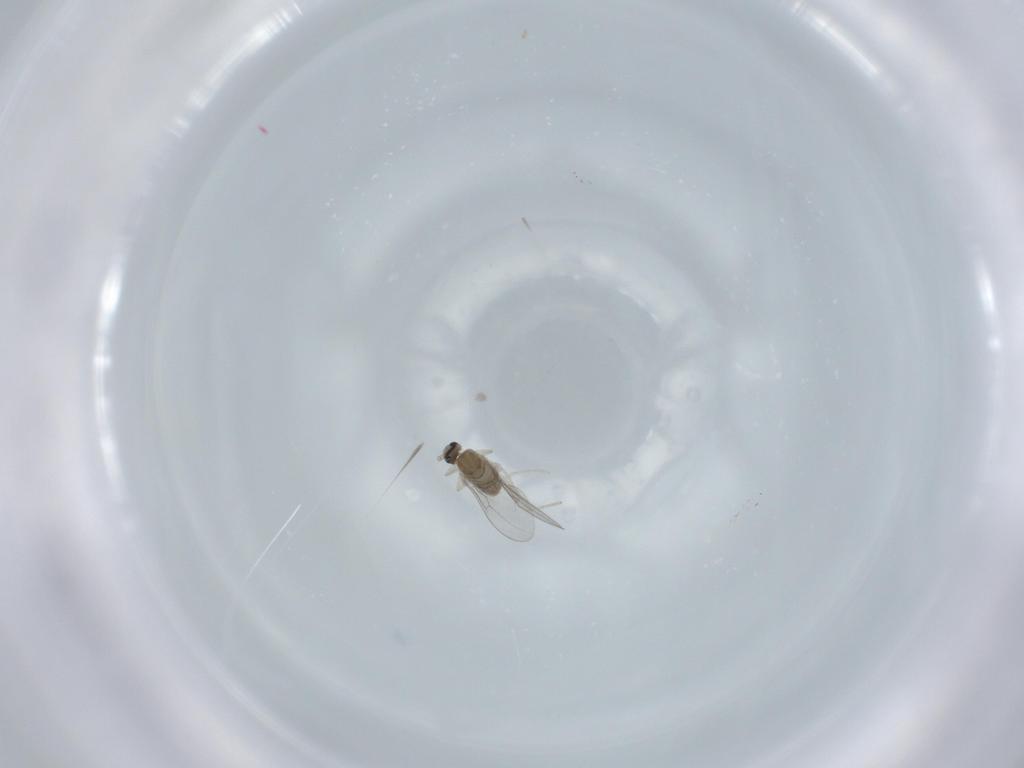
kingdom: Animalia
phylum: Arthropoda
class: Insecta
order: Diptera
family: Cecidomyiidae
